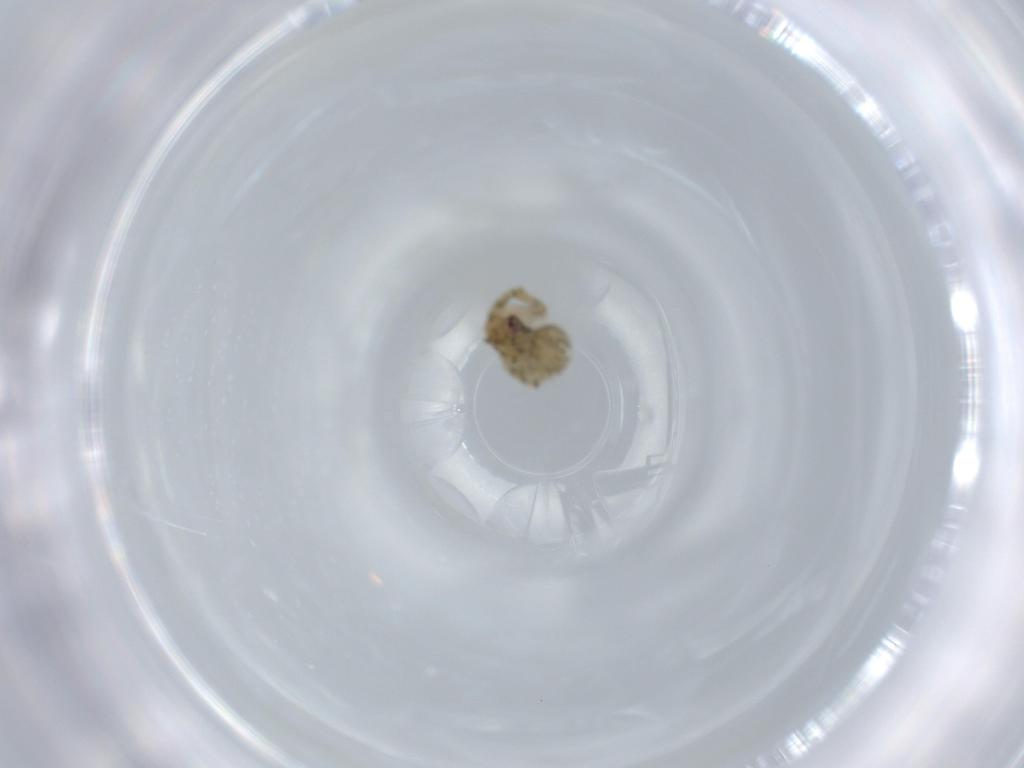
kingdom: Animalia
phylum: Arthropoda
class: Arachnida
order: Araneae
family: Theridiidae
